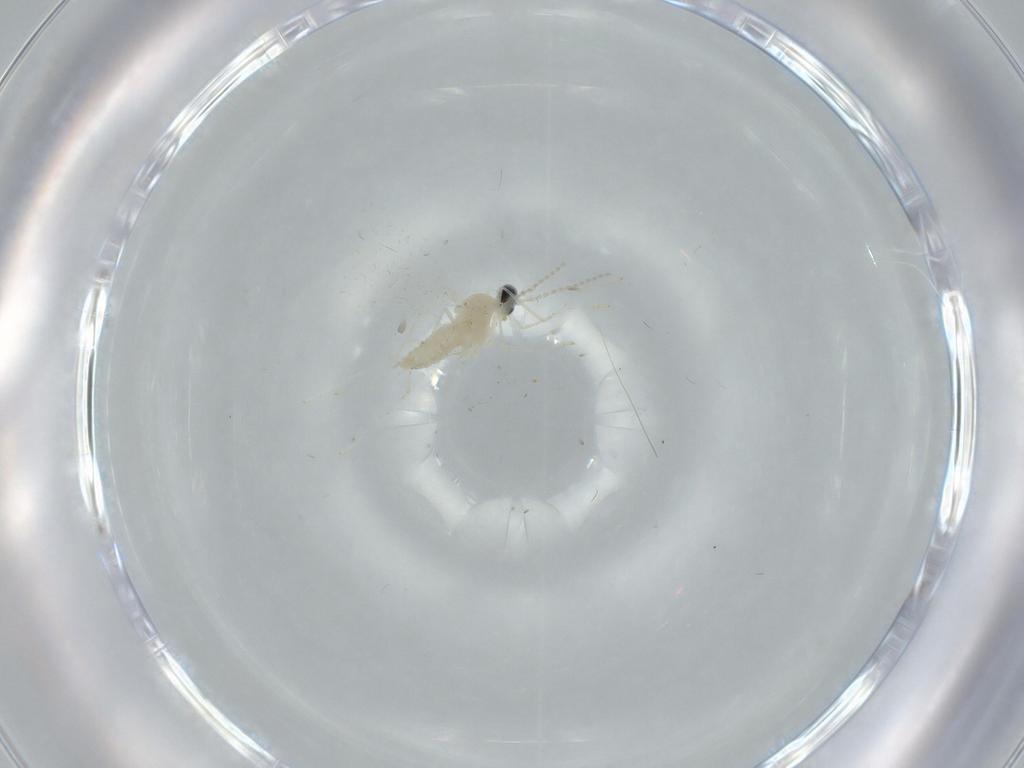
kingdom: Animalia
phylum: Arthropoda
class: Insecta
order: Diptera
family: Cecidomyiidae
